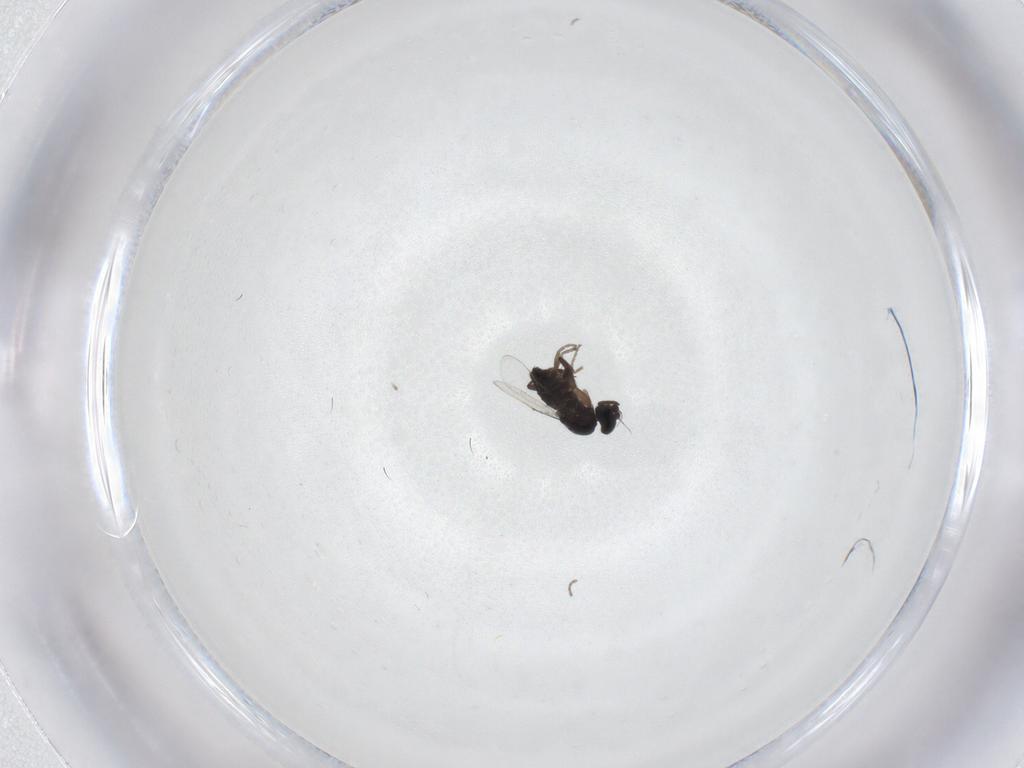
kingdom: Animalia
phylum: Arthropoda
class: Insecta
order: Diptera
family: Phoridae
